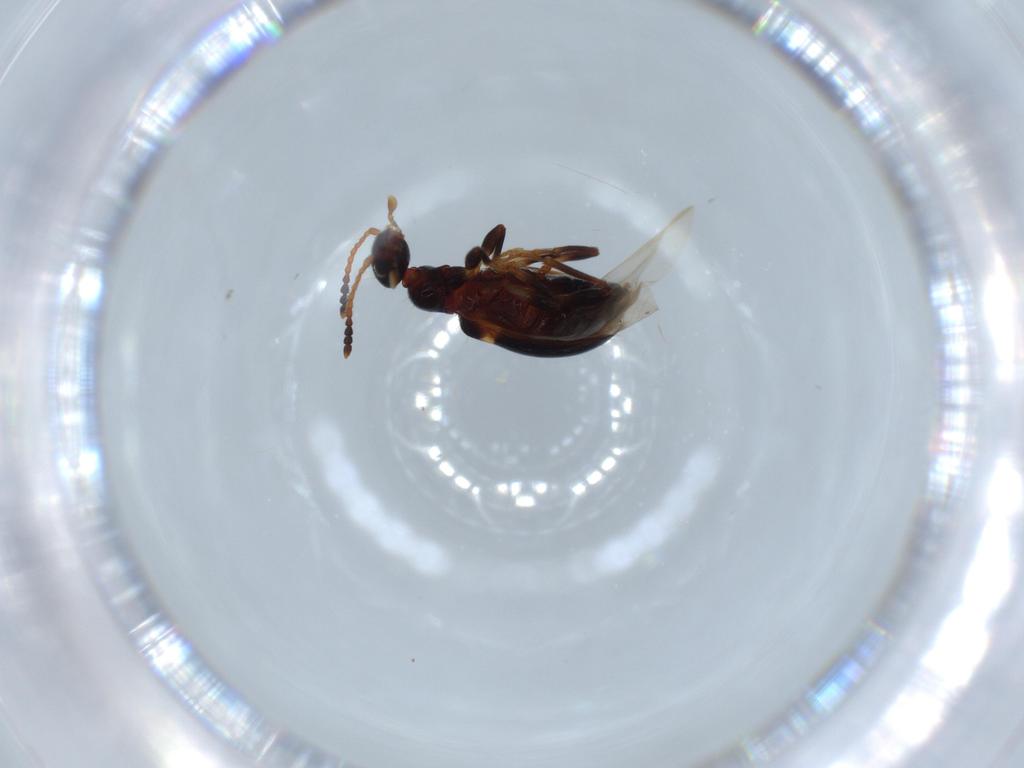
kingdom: Animalia
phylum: Arthropoda
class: Insecta
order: Coleoptera
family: Anthicidae
